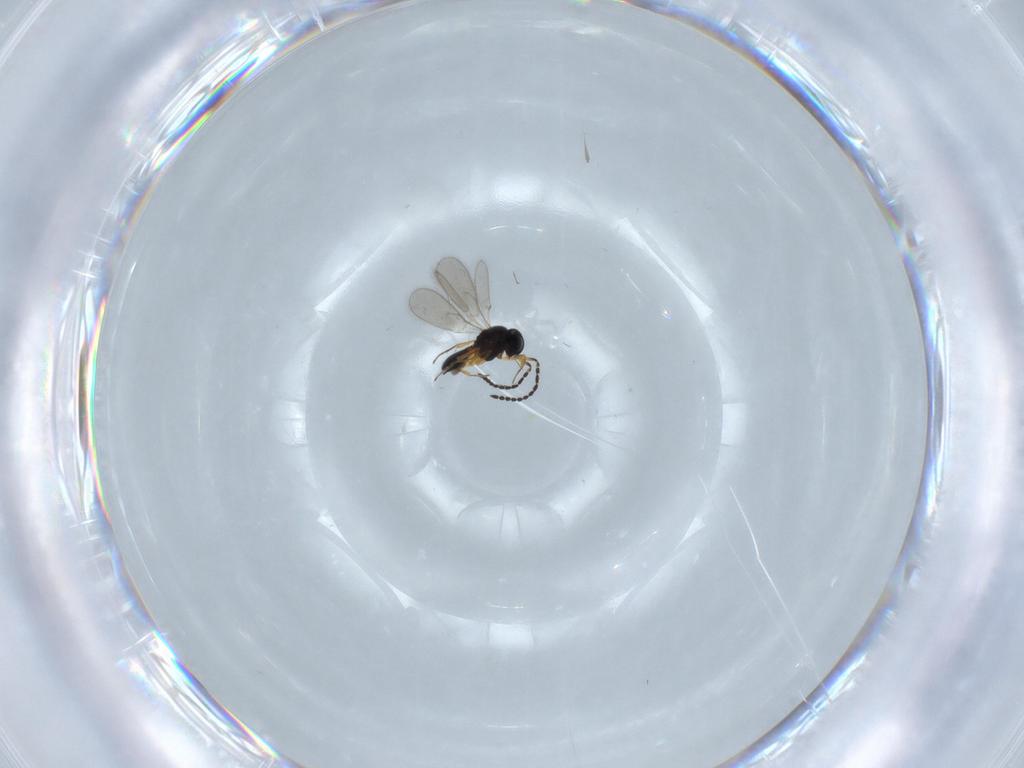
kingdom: Animalia
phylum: Arthropoda
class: Insecta
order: Hymenoptera
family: Scelionidae
